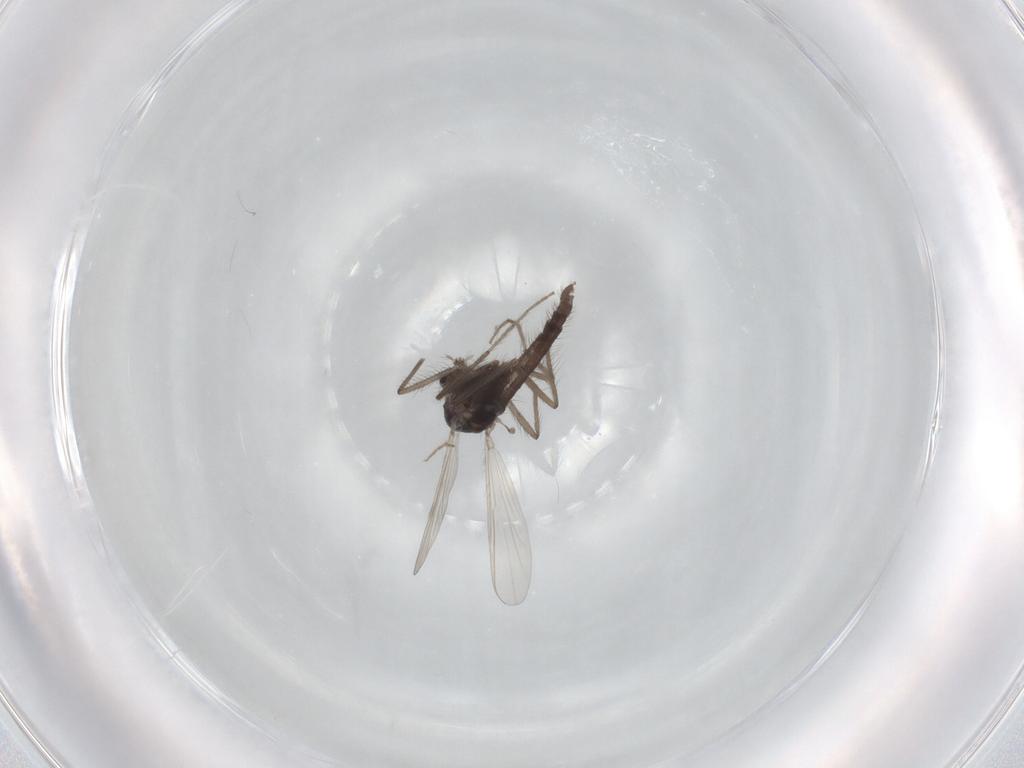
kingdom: Animalia
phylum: Arthropoda
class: Insecta
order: Diptera
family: Chironomidae
